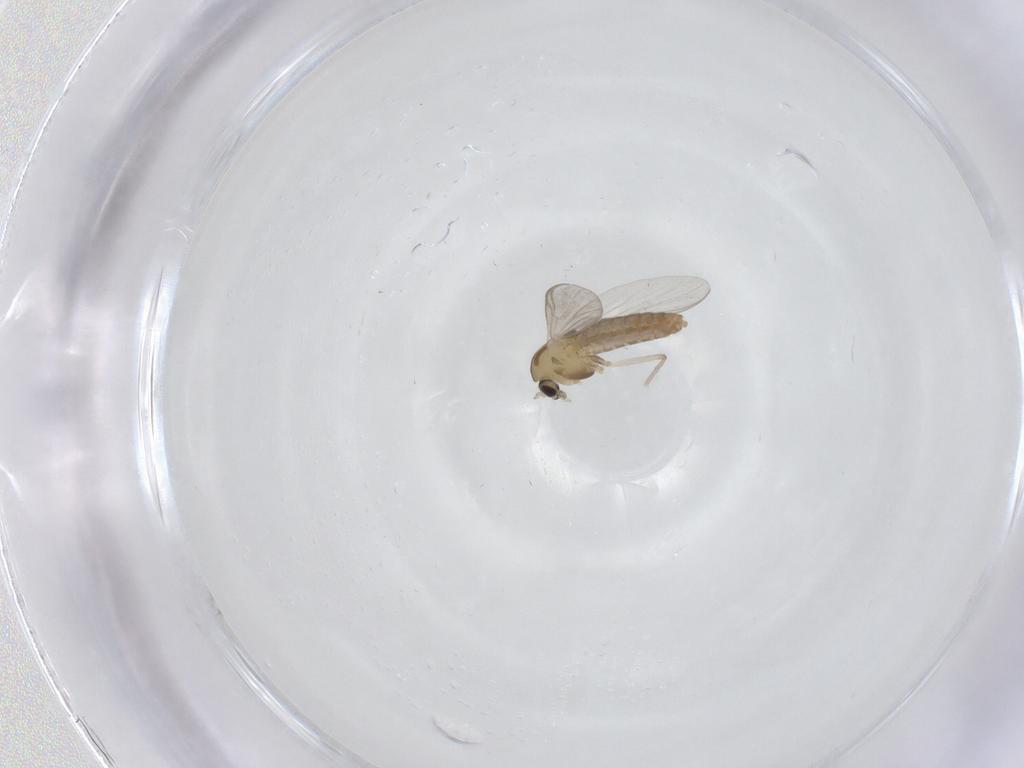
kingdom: Animalia
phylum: Arthropoda
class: Insecta
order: Diptera
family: Chironomidae
